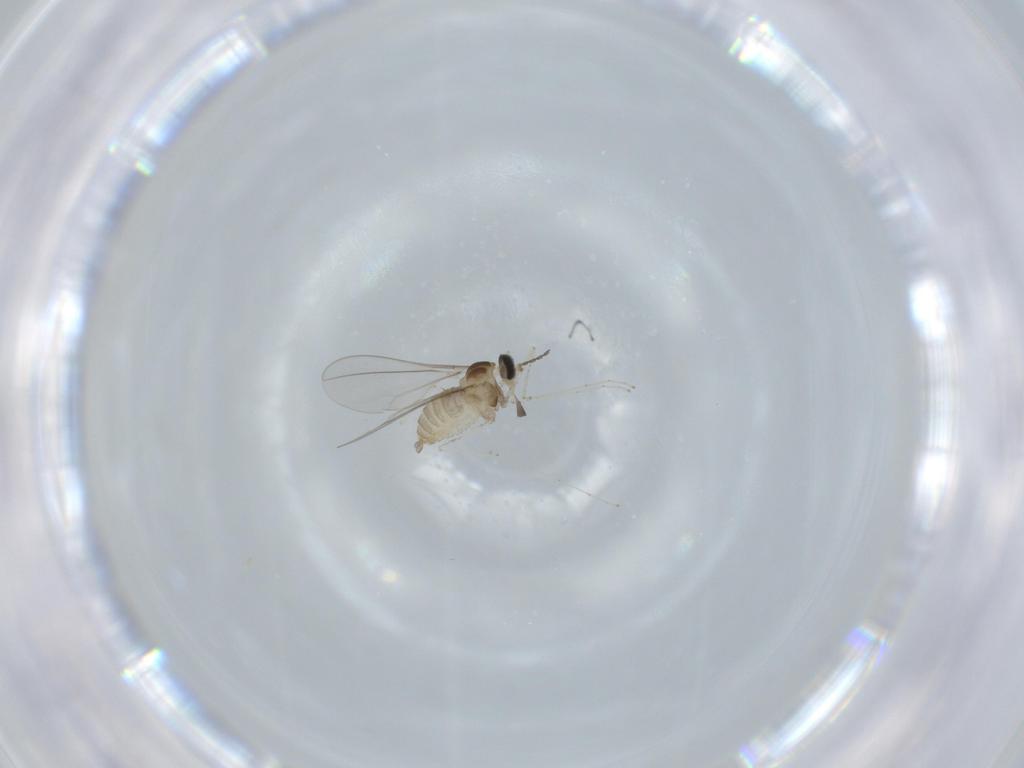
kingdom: Animalia
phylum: Arthropoda
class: Insecta
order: Diptera
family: Cecidomyiidae
